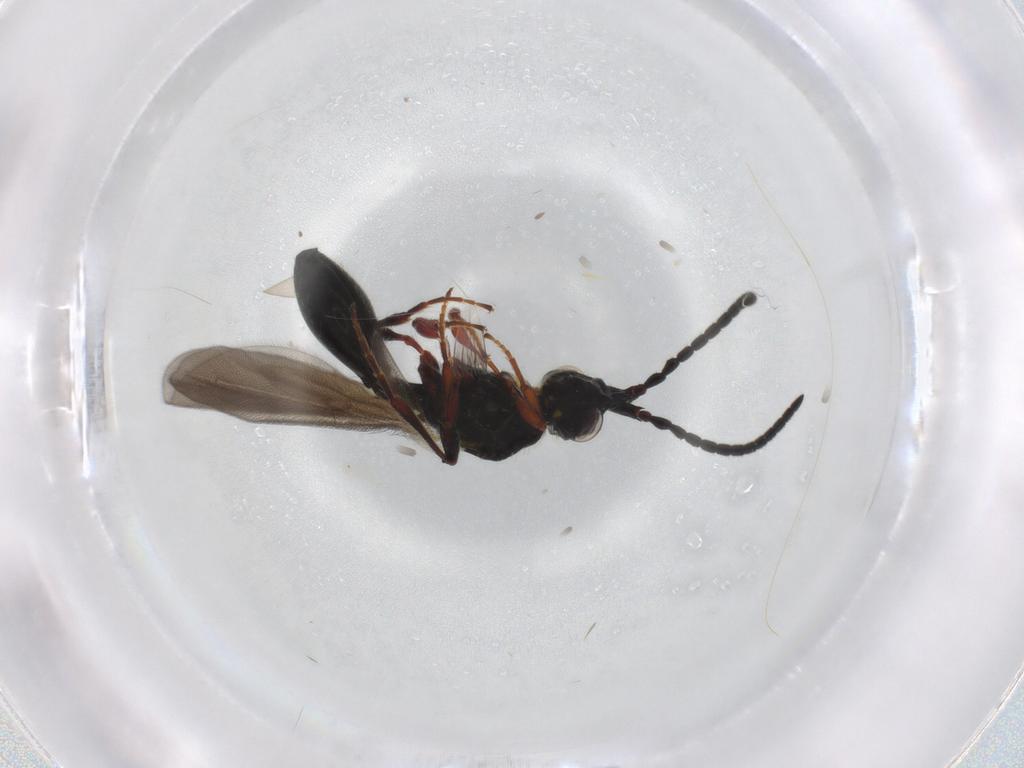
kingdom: Animalia
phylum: Arthropoda
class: Insecta
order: Hymenoptera
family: Diapriidae
